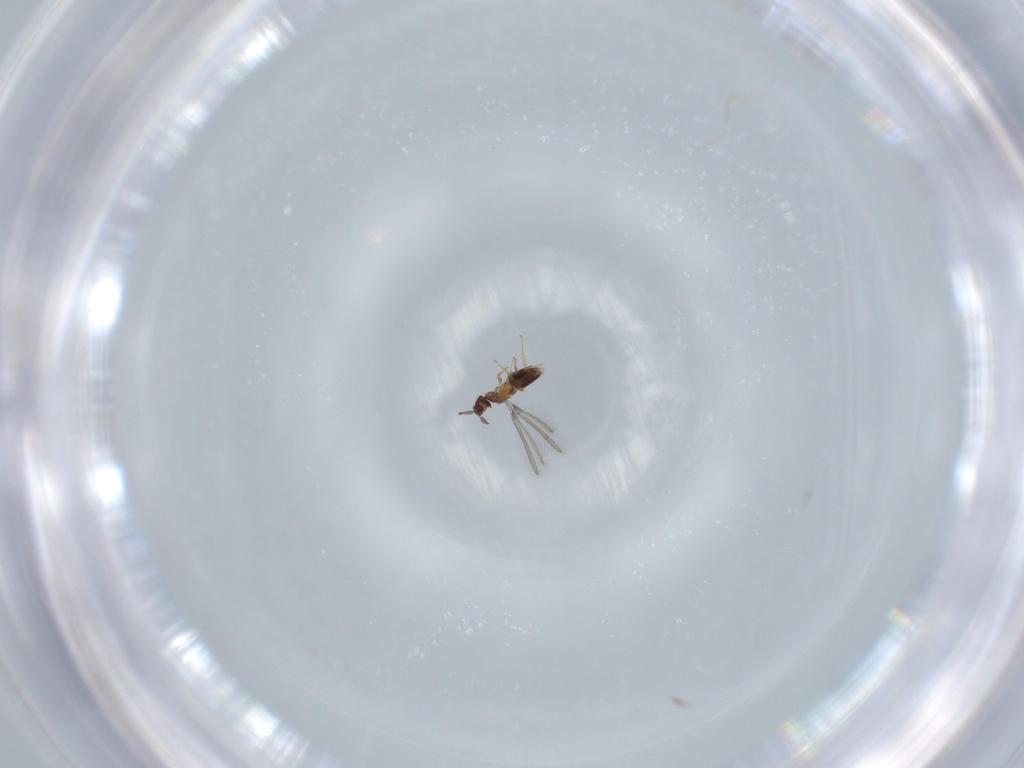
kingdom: Animalia
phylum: Arthropoda
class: Insecta
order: Hymenoptera
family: Mymaridae
